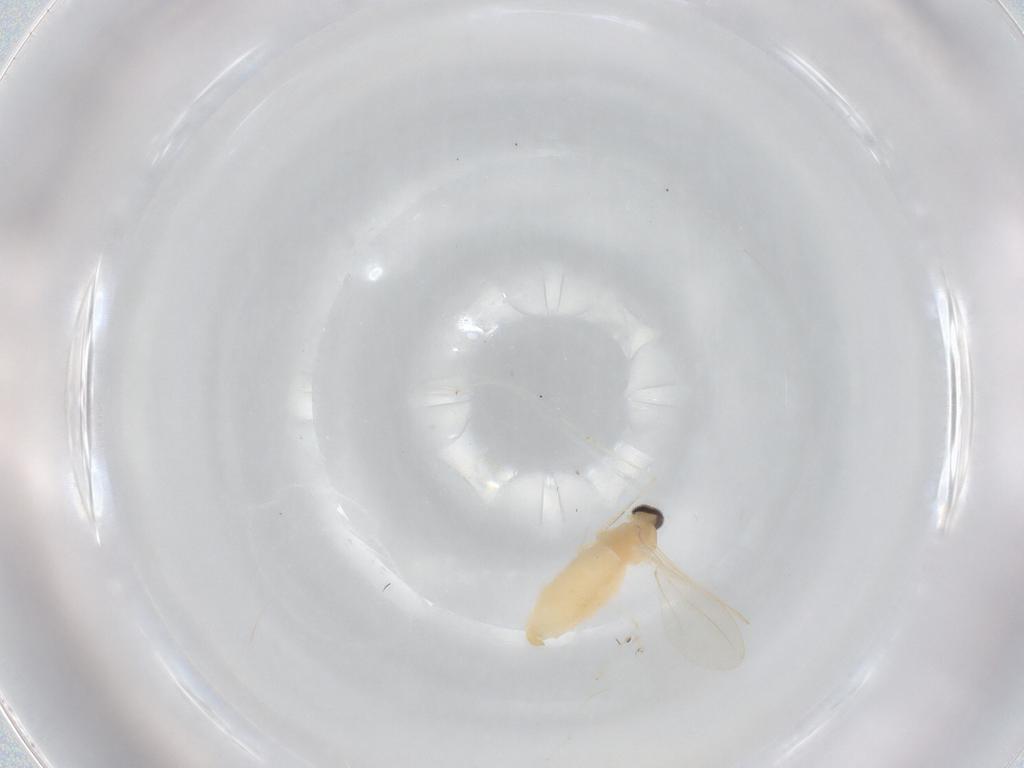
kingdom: Animalia
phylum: Arthropoda
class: Insecta
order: Diptera
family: Cecidomyiidae
